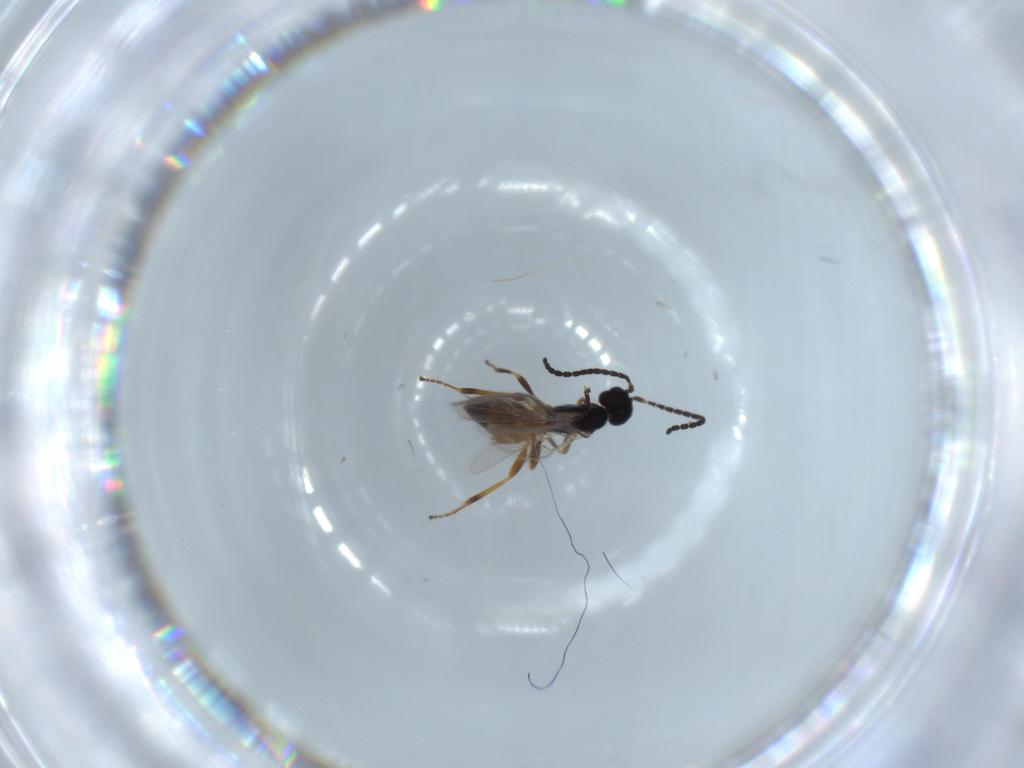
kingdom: Animalia
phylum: Arthropoda
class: Insecta
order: Hymenoptera
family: Braconidae
